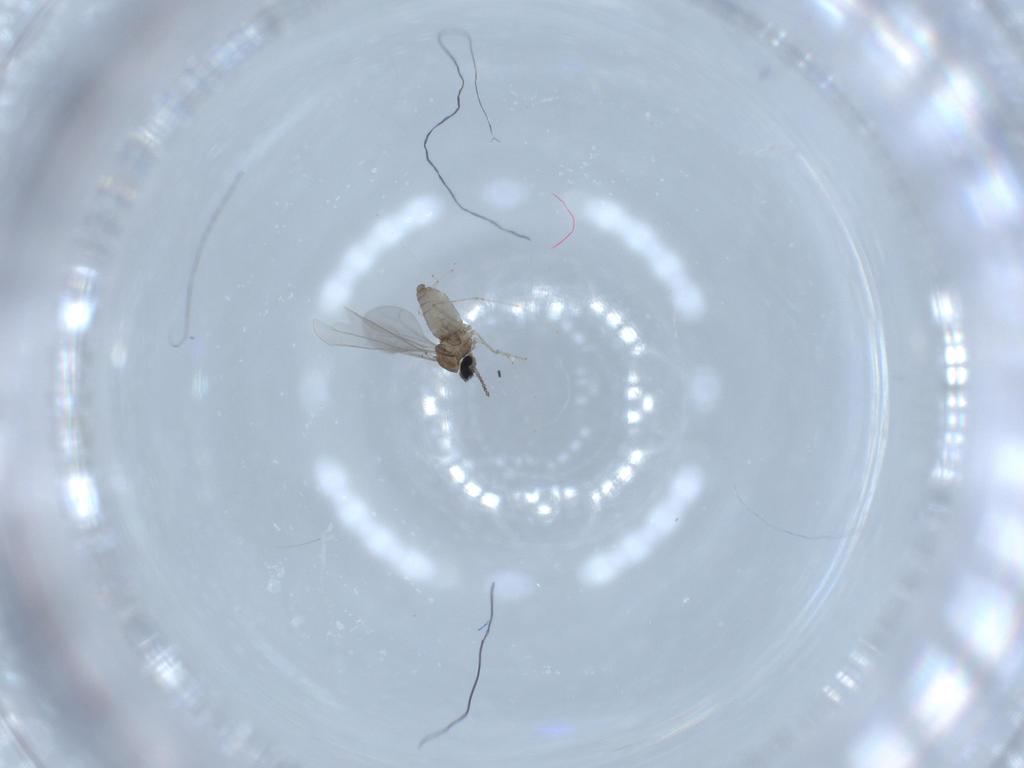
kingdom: Animalia
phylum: Arthropoda
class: Insecta
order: Diptera
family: Cecidomyiidae
